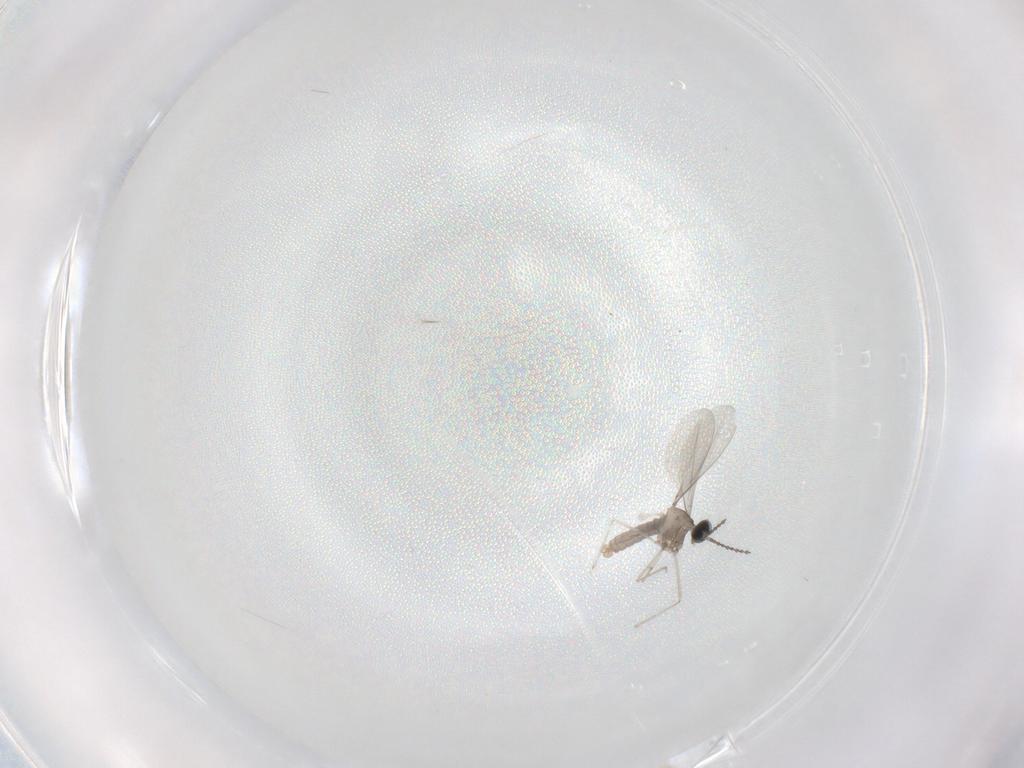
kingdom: Animalia
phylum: Arthropoda
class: Insecta
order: Diptera
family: Cecidomyiidae
